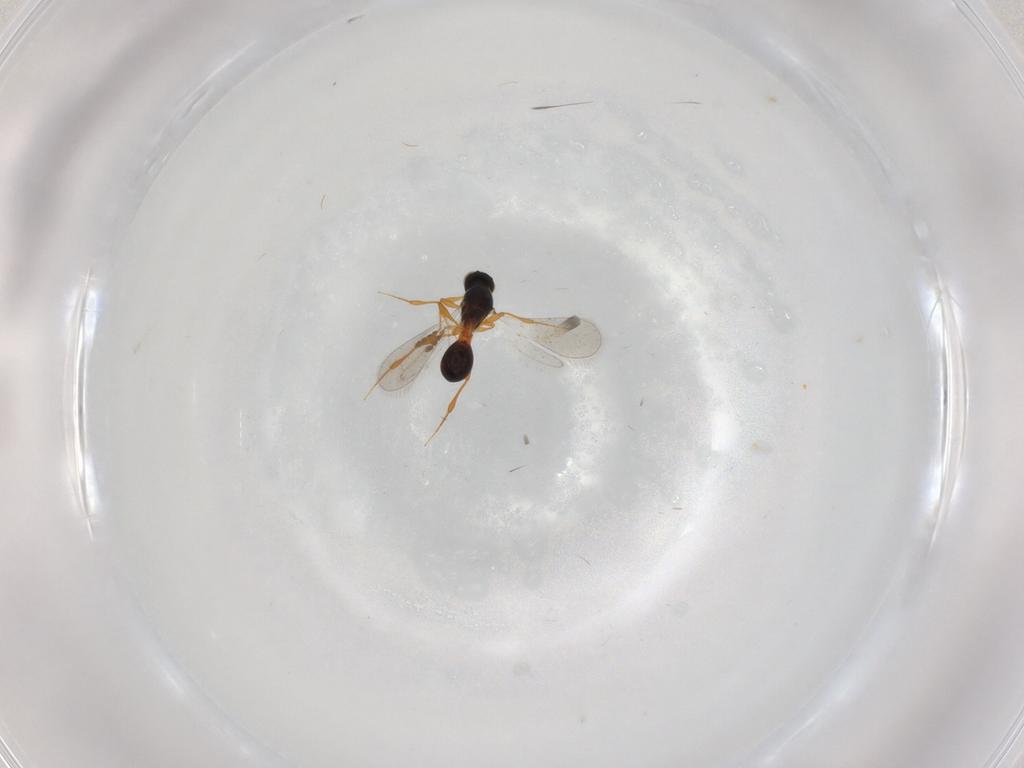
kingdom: Animalia
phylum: Arthropoda
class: Insecta
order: Hymenoptera
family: Platygastridae
